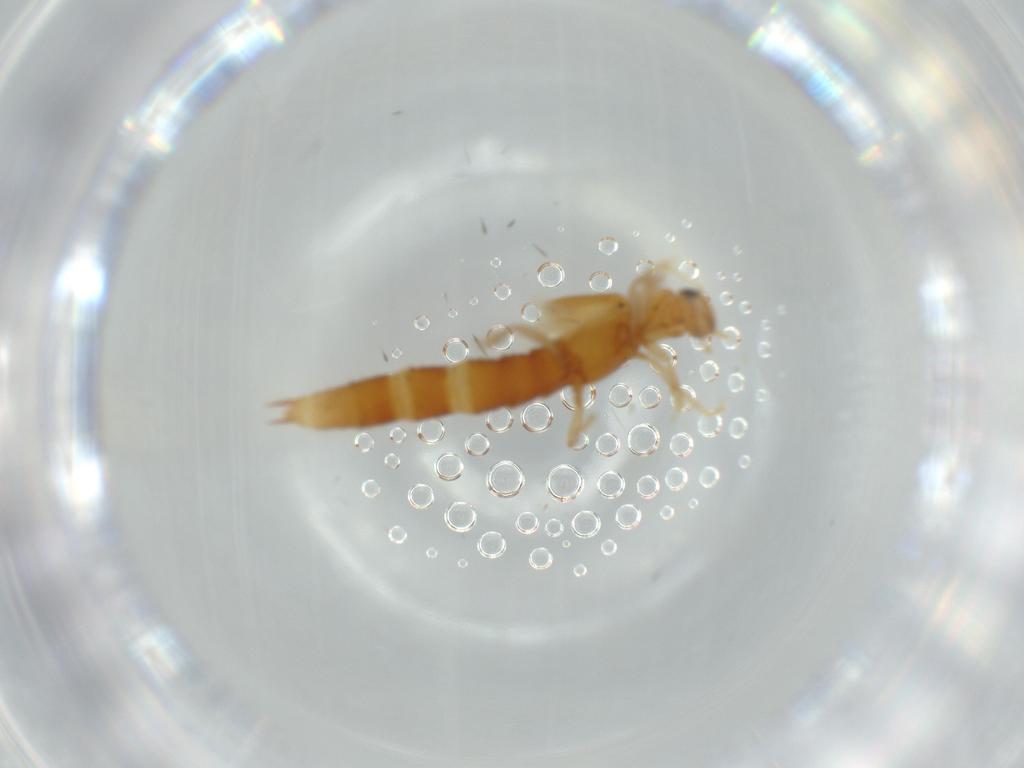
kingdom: Animalia
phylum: Arthropoda
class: Insecta
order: Coleoptera
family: Staphylinidae
